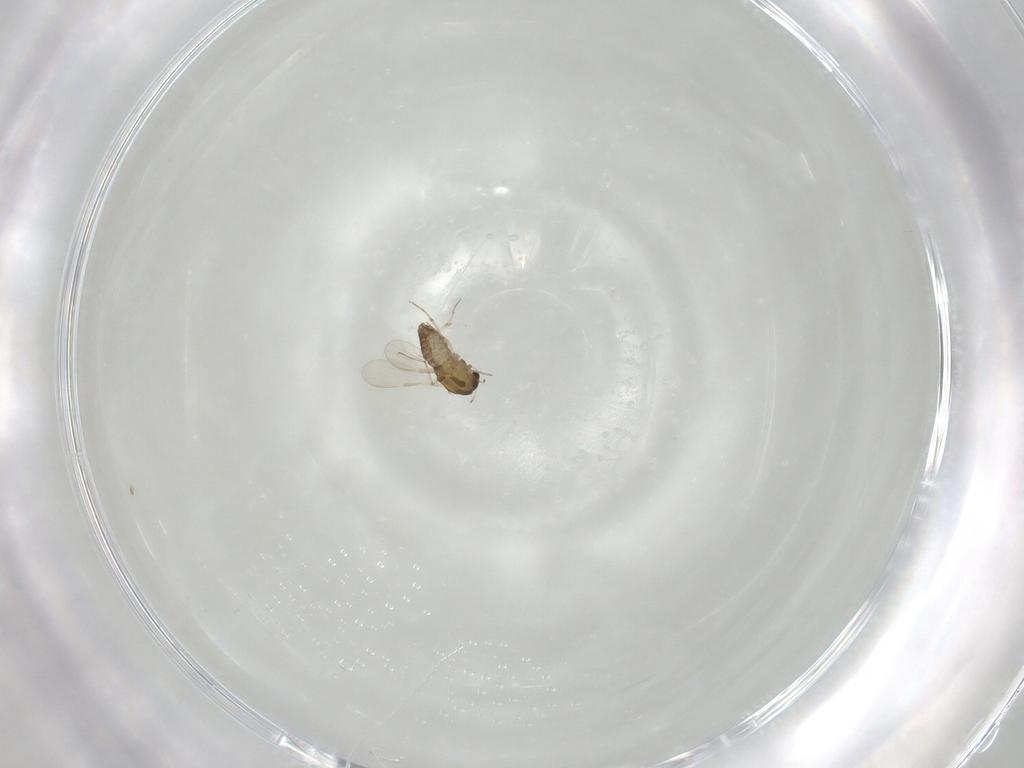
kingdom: Animalia
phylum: Arthropoda
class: Insecta
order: Diptera
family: Chironomidae
